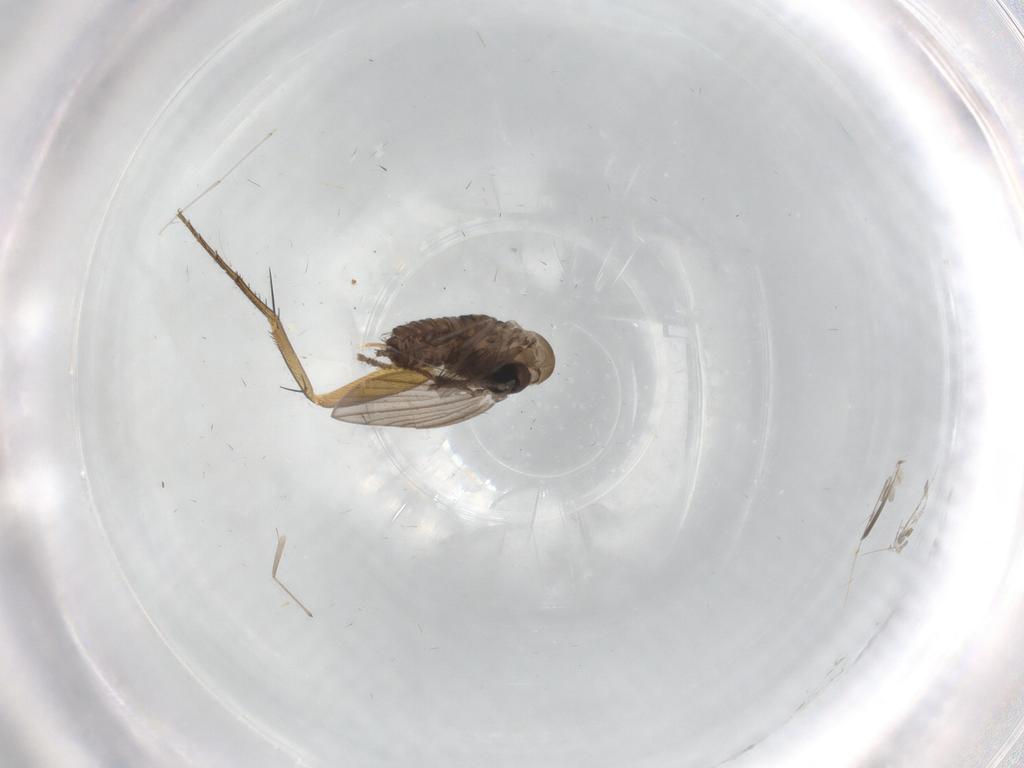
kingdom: Animalia
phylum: Arthropoda
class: Insecta
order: Diptera
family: Psychodidae
